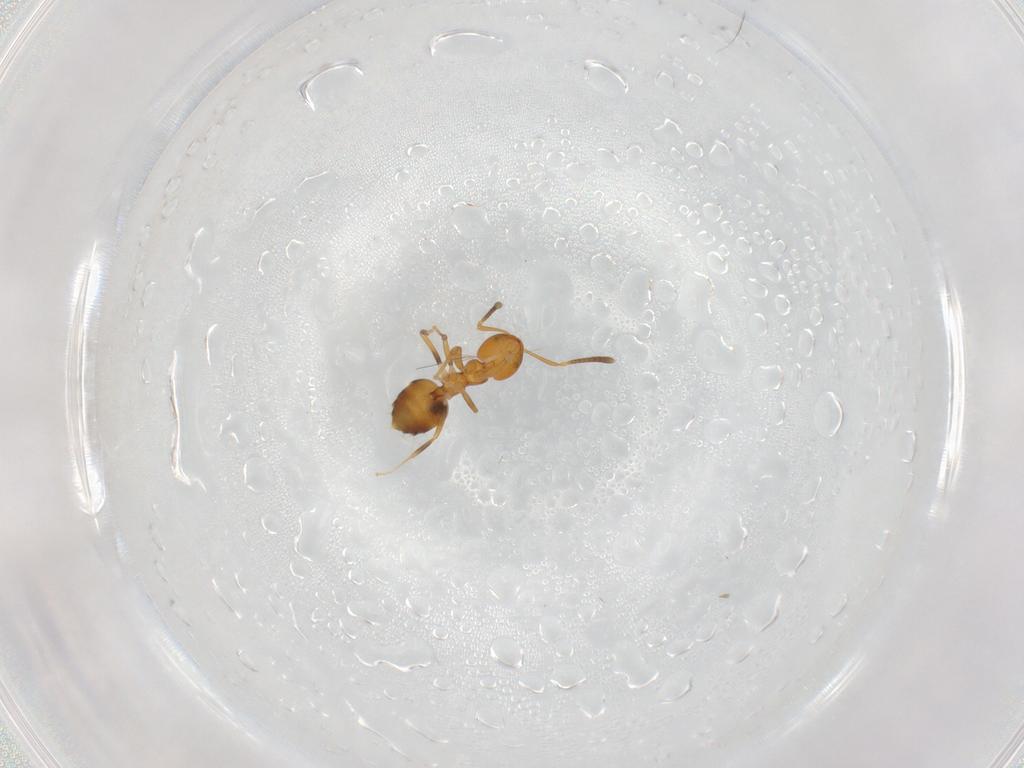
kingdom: Animalia
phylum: Arthropoda
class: Insecta
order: Hymenoptera
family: Formicidae
